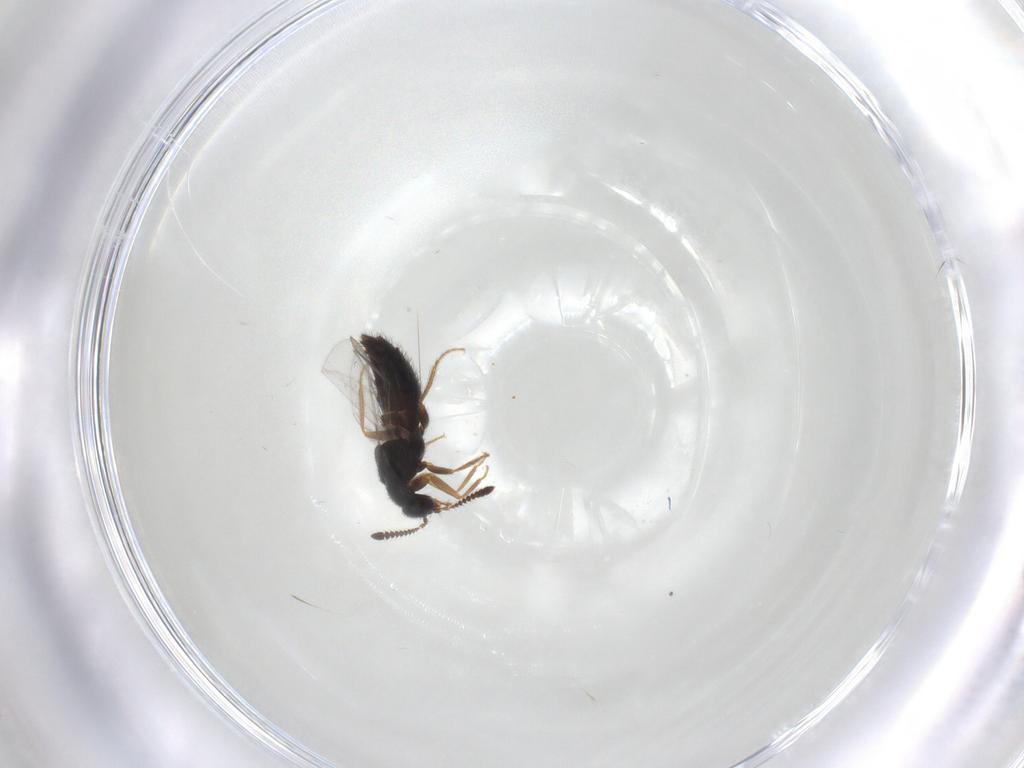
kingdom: Animalia
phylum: Arthropoda
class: Insecta
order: Coleoptera
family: Staphylinidae
